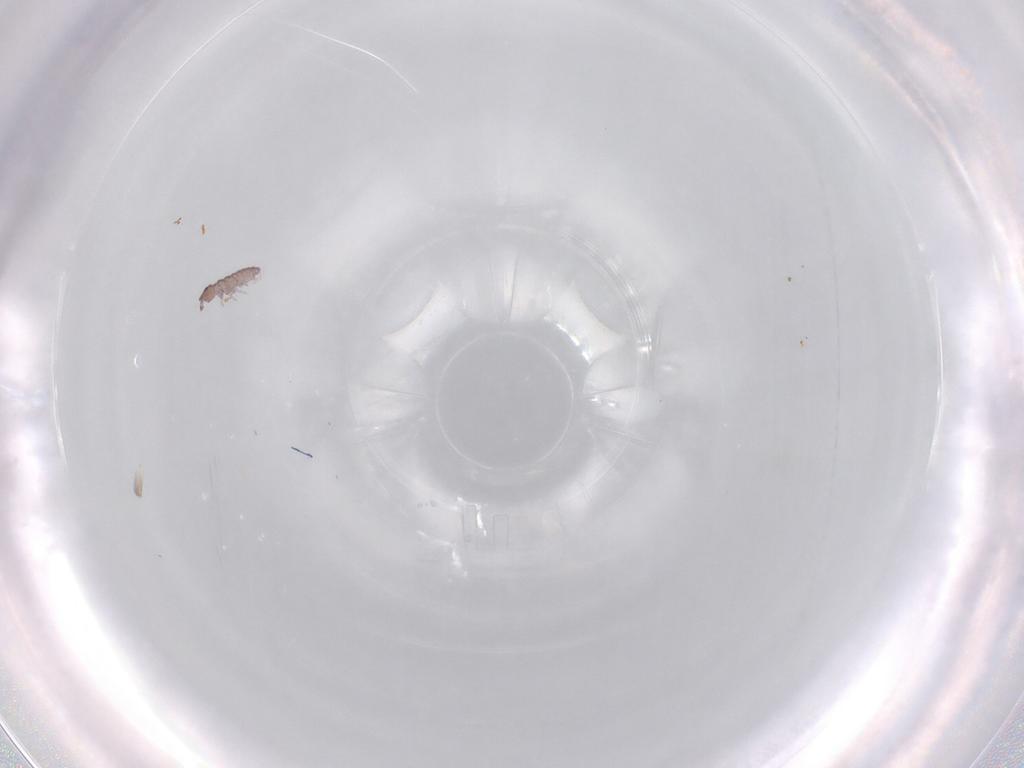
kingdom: Animalia
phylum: Arthropoda
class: Collembola
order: Poduromorpha
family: Hypogastruridae
